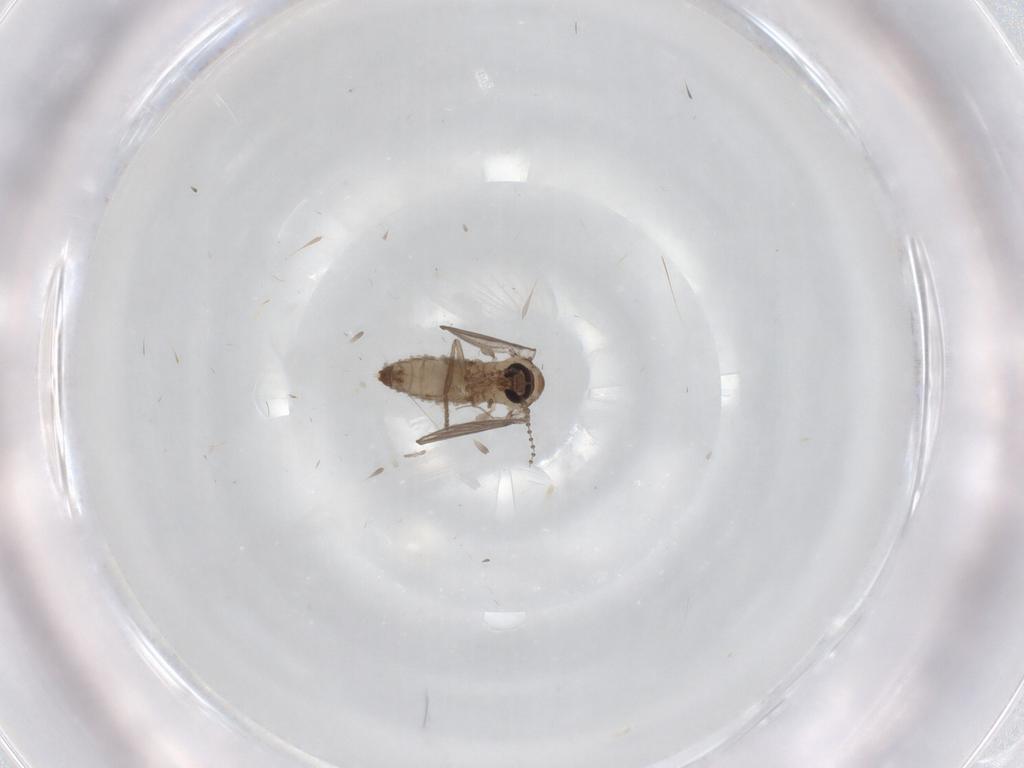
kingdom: Animalia
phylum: Arthropoda
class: Insecta
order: Diptera
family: Psychodidae
